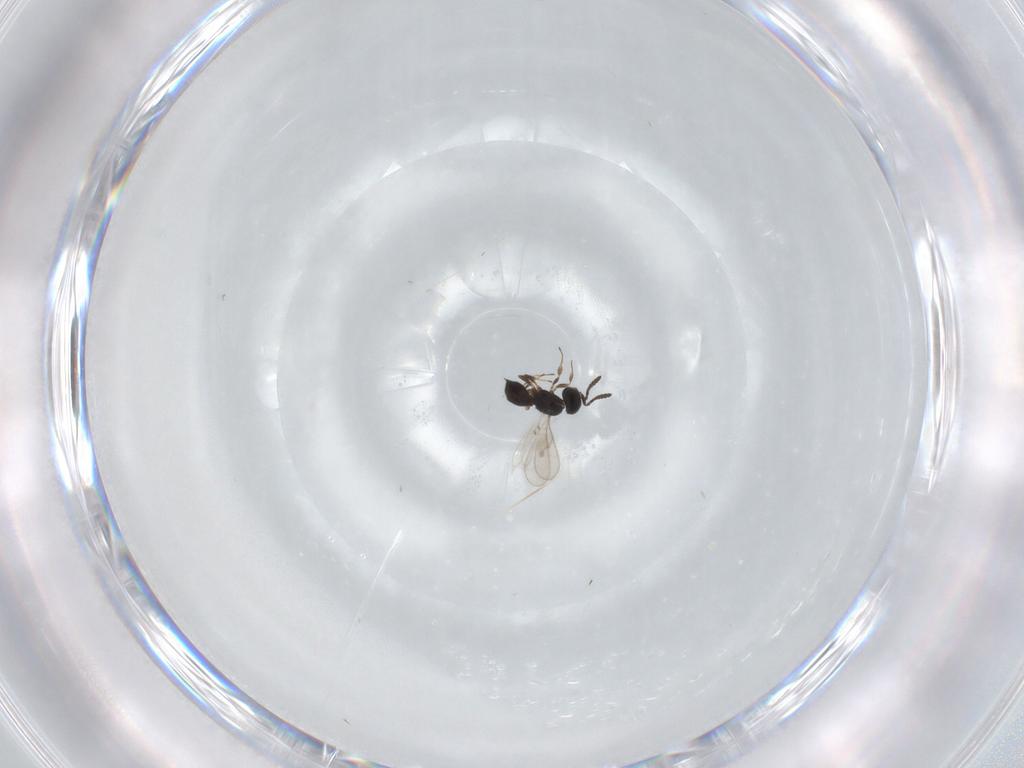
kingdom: Animalia
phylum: Arthropoda
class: Insecta
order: Hymenoptera
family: Scelionidae
